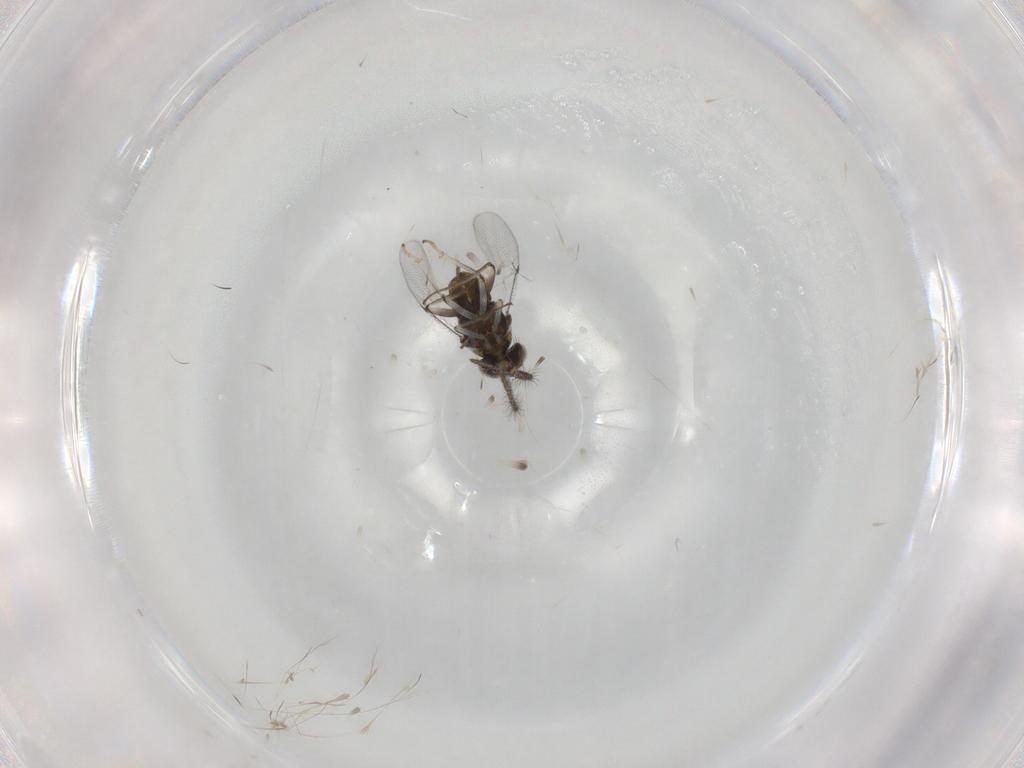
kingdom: Animalia
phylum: Arthropoda
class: Insecta
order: Hymenoptera
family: Encyrtidae
